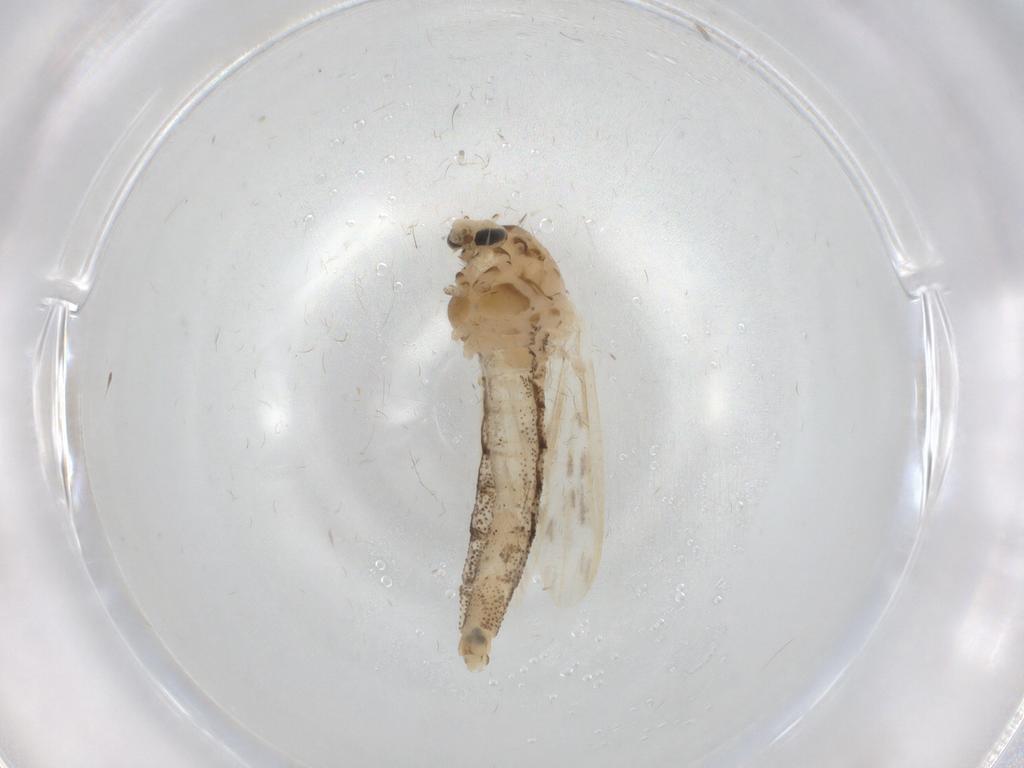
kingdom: Animalia
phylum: Arthropoda
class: Insecta
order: Diptera
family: Chaoboridae
